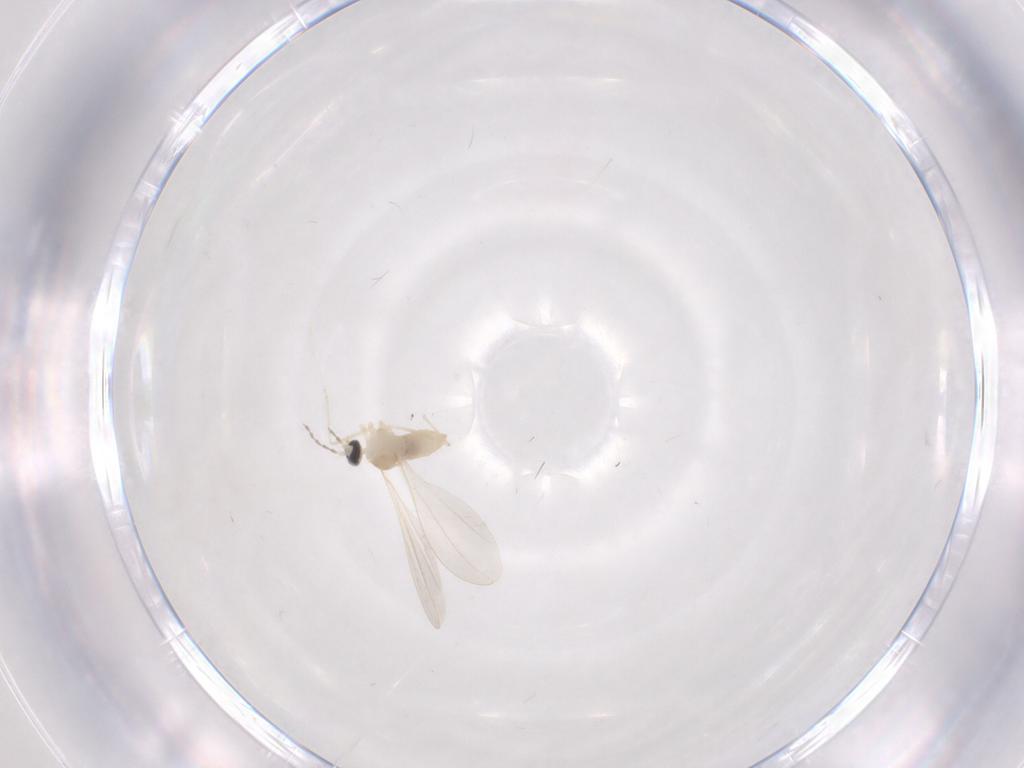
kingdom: Animalia
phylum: Arthropoda
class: Insecta
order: Diptera
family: Cecidomyiidae
